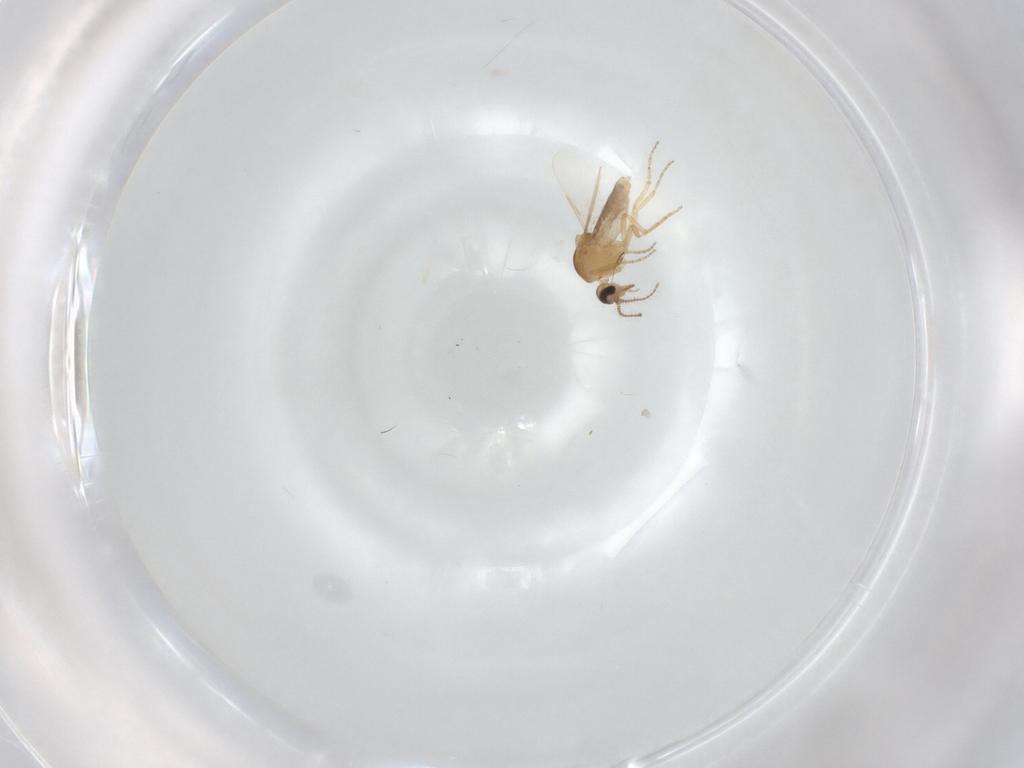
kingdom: Animalia
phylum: Arthropoda
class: Insecta
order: Diptera
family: Ceratopogonidae
